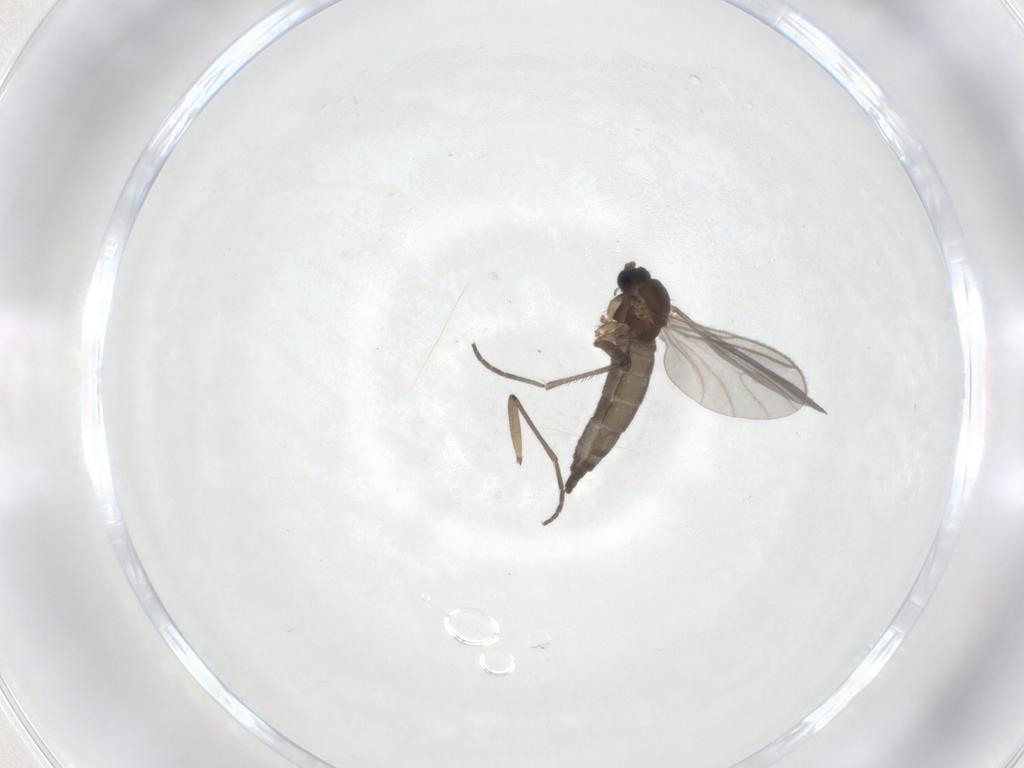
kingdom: Animalia
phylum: Arthropoda
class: Insecta
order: Diptera
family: Sciaridae
